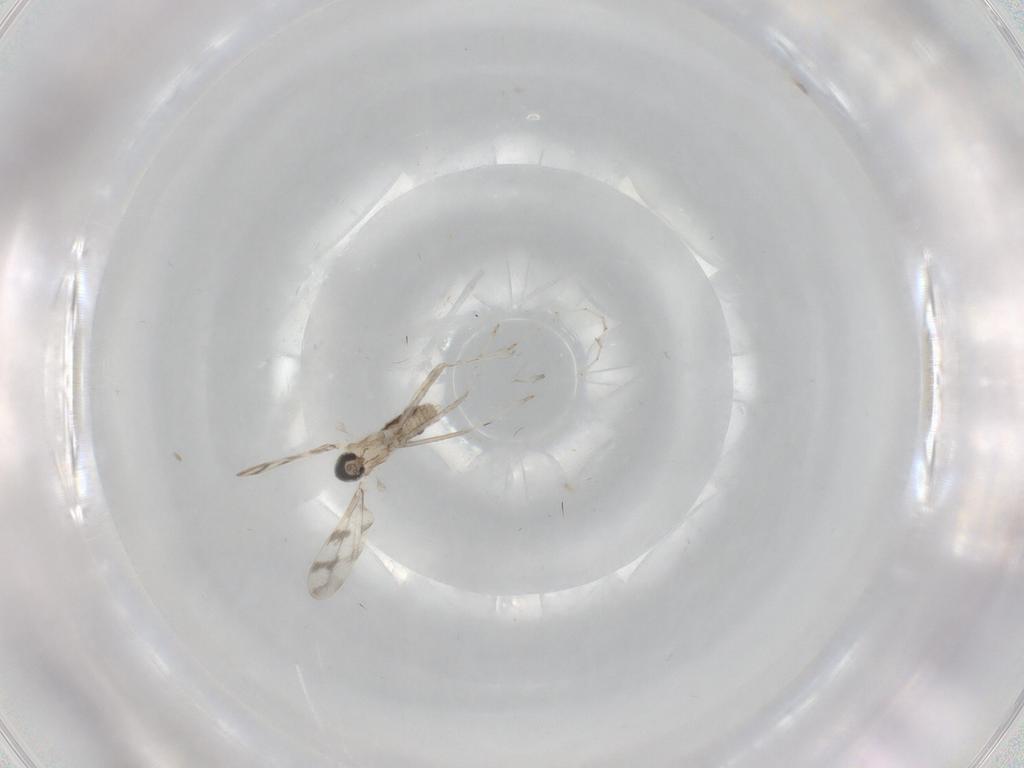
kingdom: Animalia
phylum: Arthropoda
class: Insecta
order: Diptera
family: Cecidomyiidae
